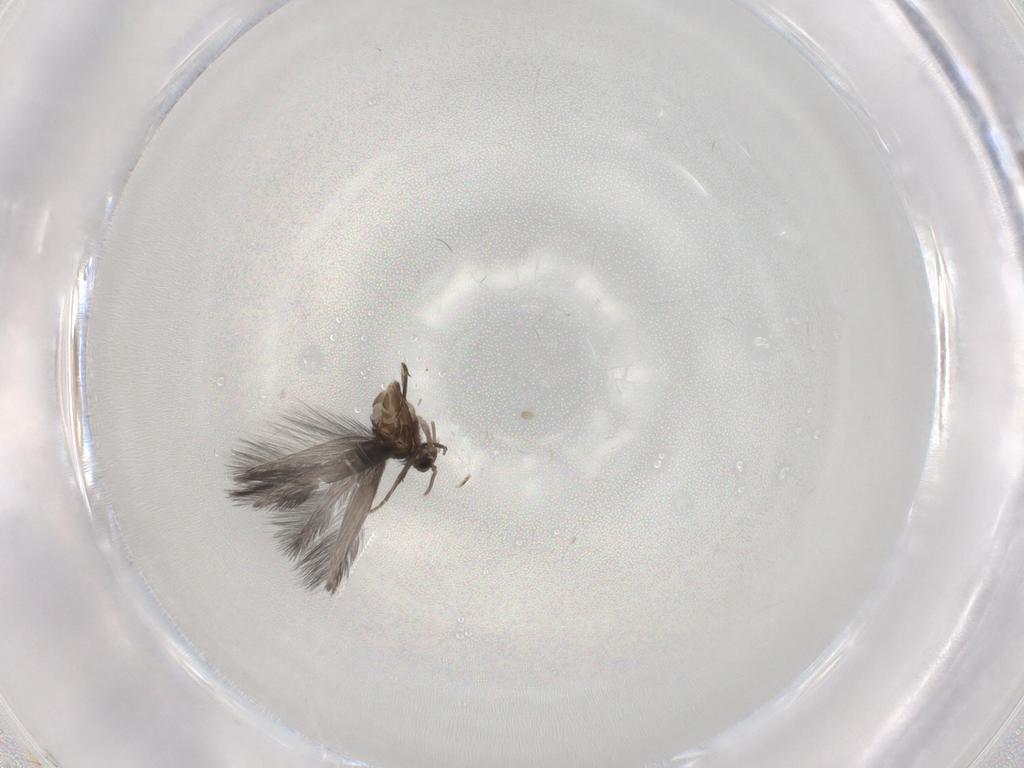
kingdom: Animalia
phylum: Arthropoda
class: Insecta
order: Trichoptera
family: Hydroptilidae
